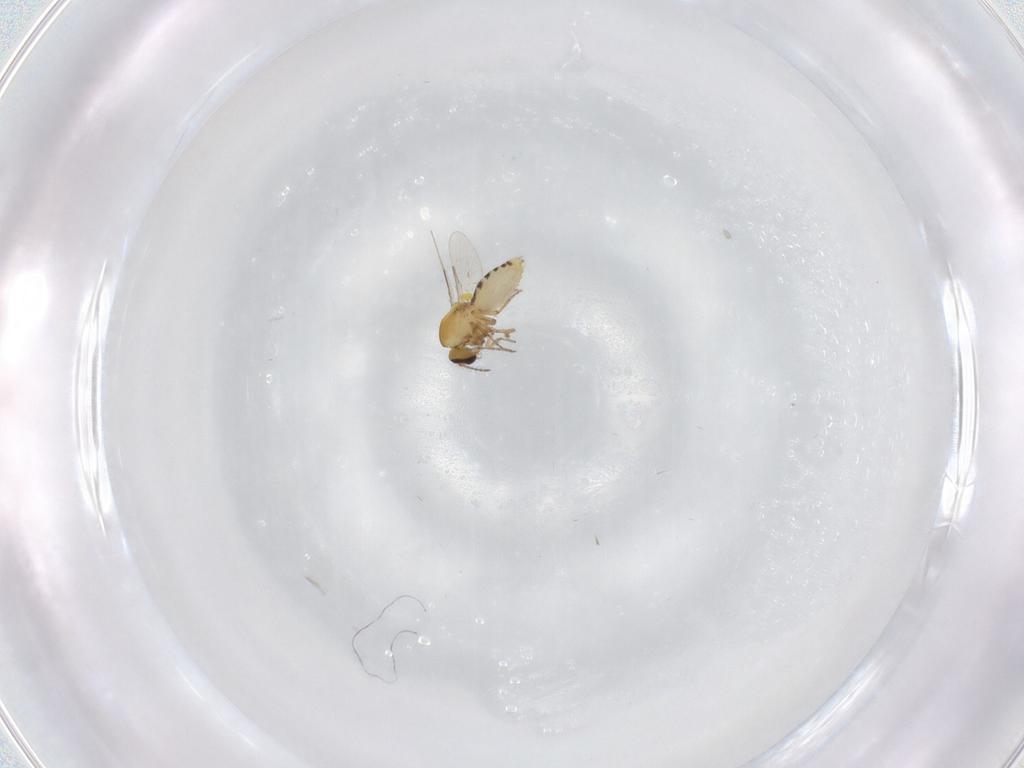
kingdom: Animalia
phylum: Arthropoda
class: Insecta
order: Diptera
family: Ceratopogonidae
